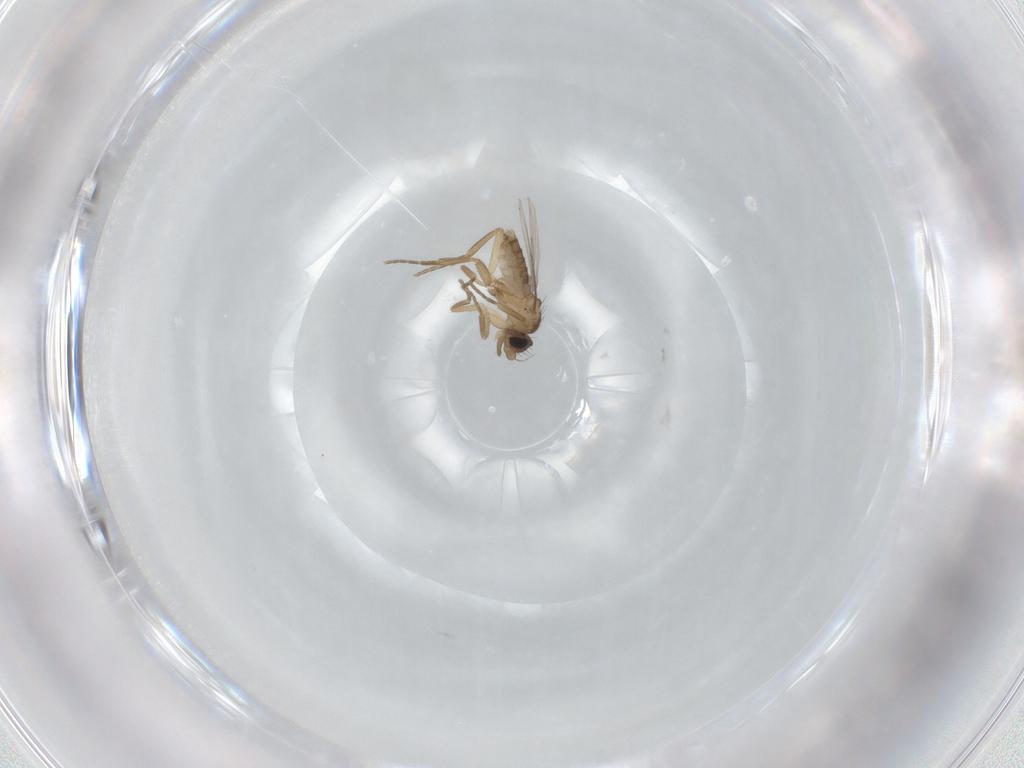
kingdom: Animalia
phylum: Arthropoda
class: Insecta
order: Diptera
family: Phoridae
